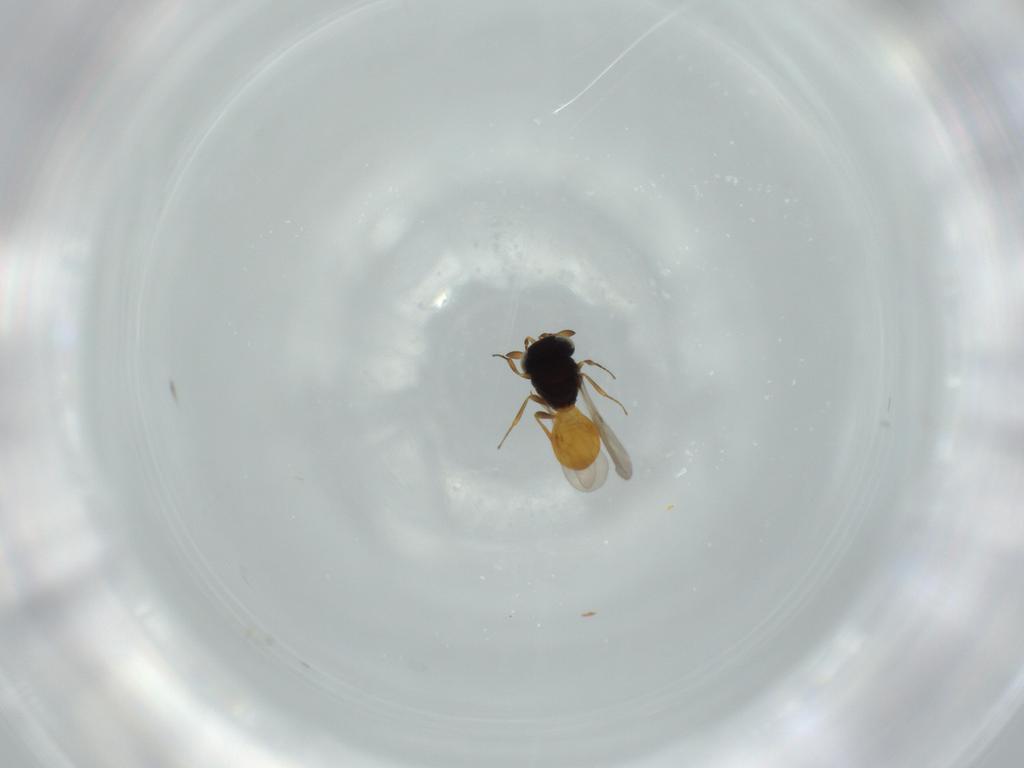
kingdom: Animalia
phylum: Arthropoda
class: Insecta
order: Hymenoptera
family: Scelionidae
